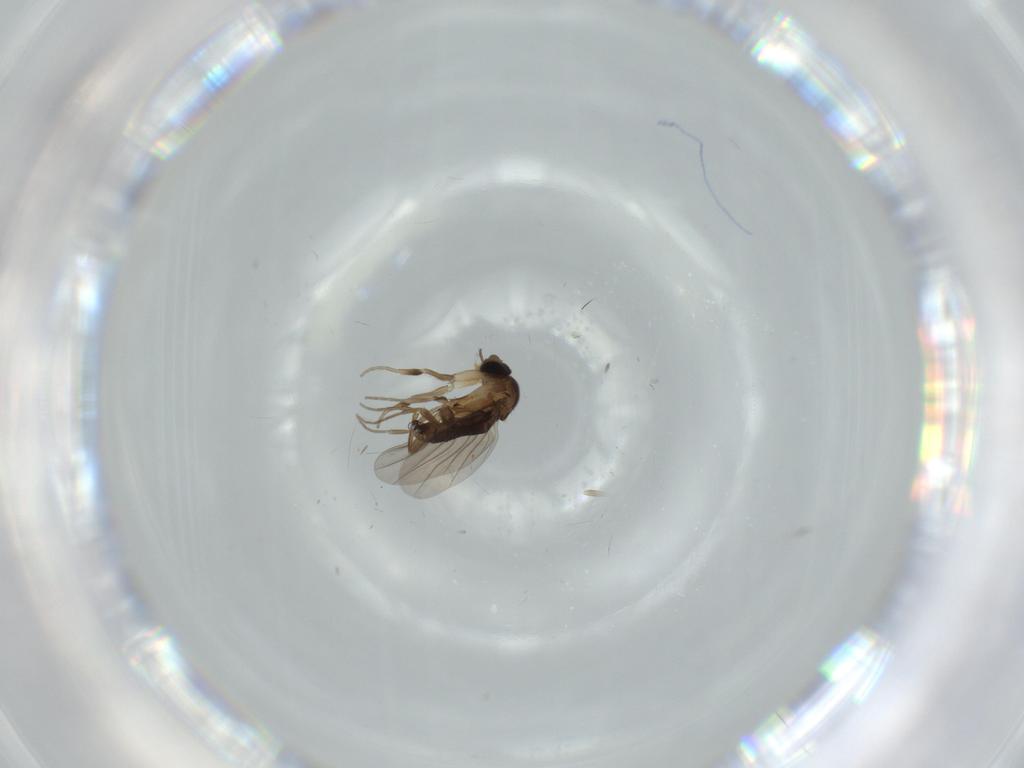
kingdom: Animalia
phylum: Arthropoda
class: Insecta
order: Diptera
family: Phoridae
